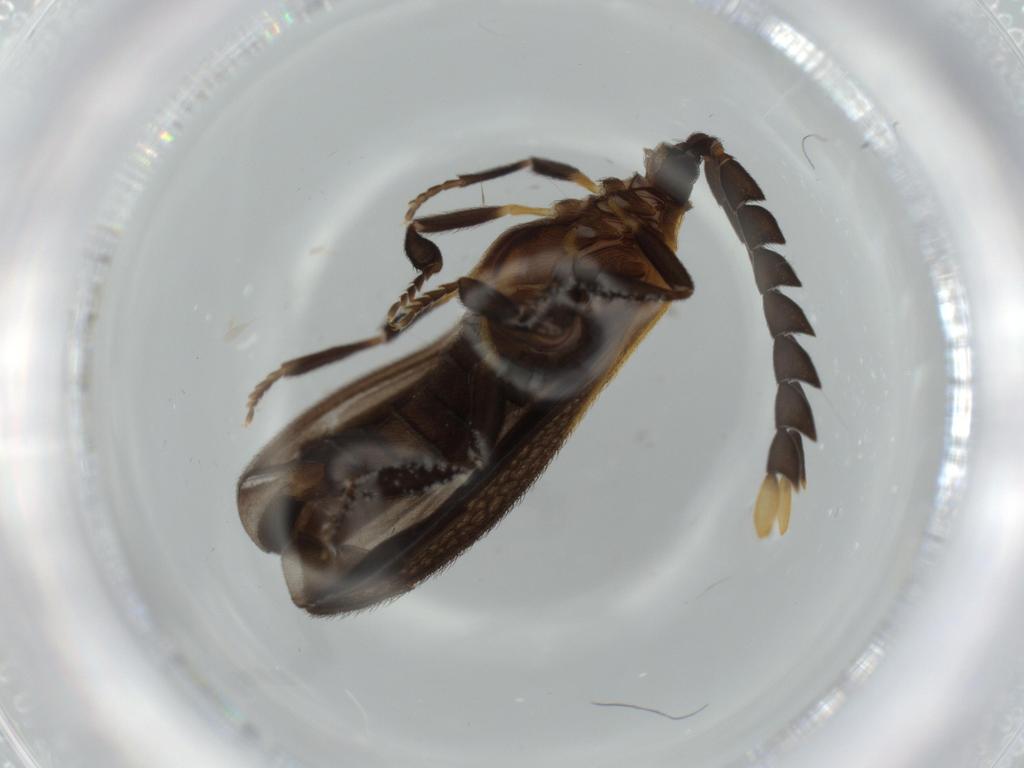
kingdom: Animalia
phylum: Arthropoda
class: Insecta
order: Coleoptera
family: Lycidae
